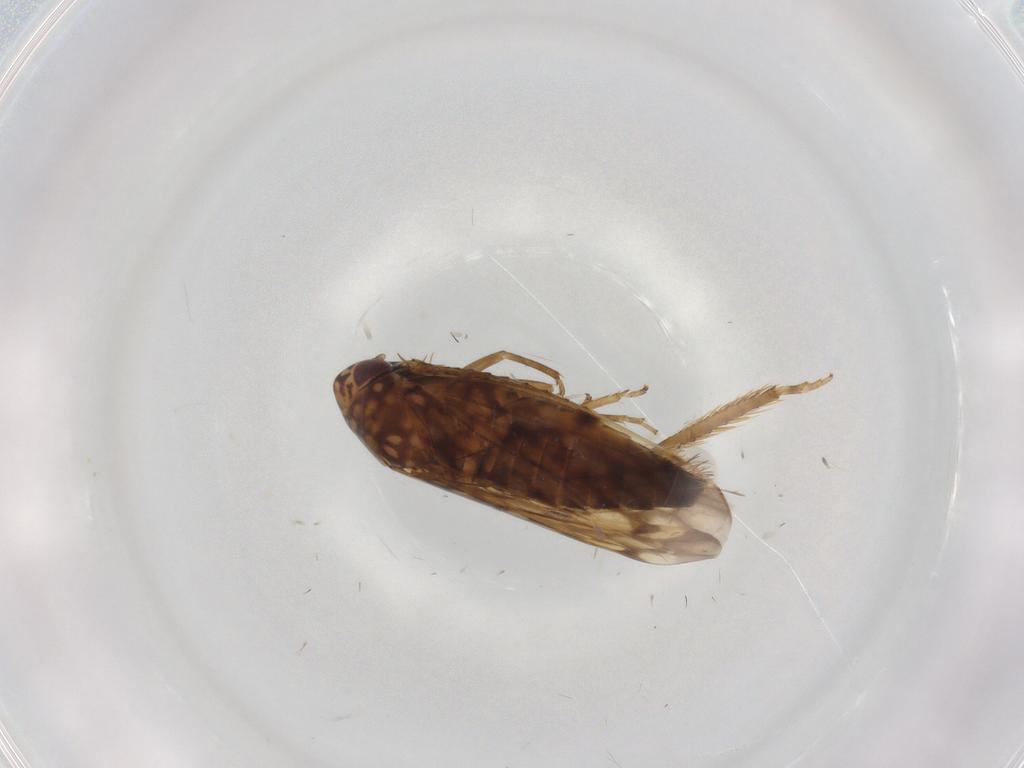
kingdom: Animalia
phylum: Arthropoda
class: Insecta
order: Hemiptera
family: Cicadellidae
